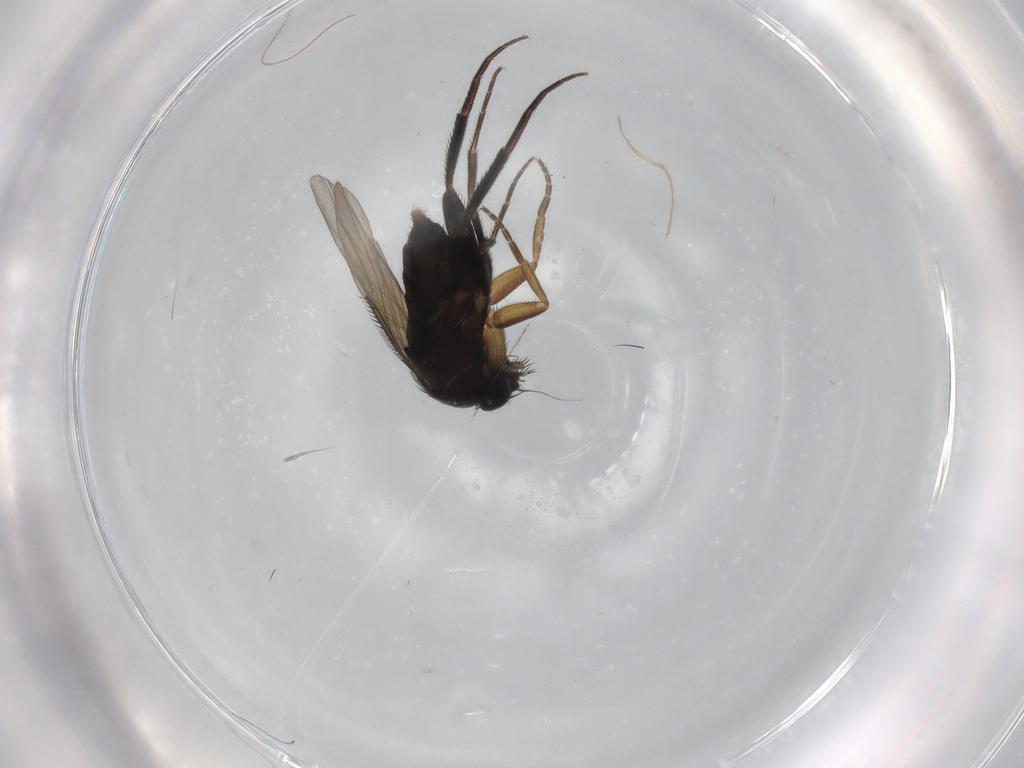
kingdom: Animalia
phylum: Arthropoda
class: Insecta
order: Diptera
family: Phoridae
